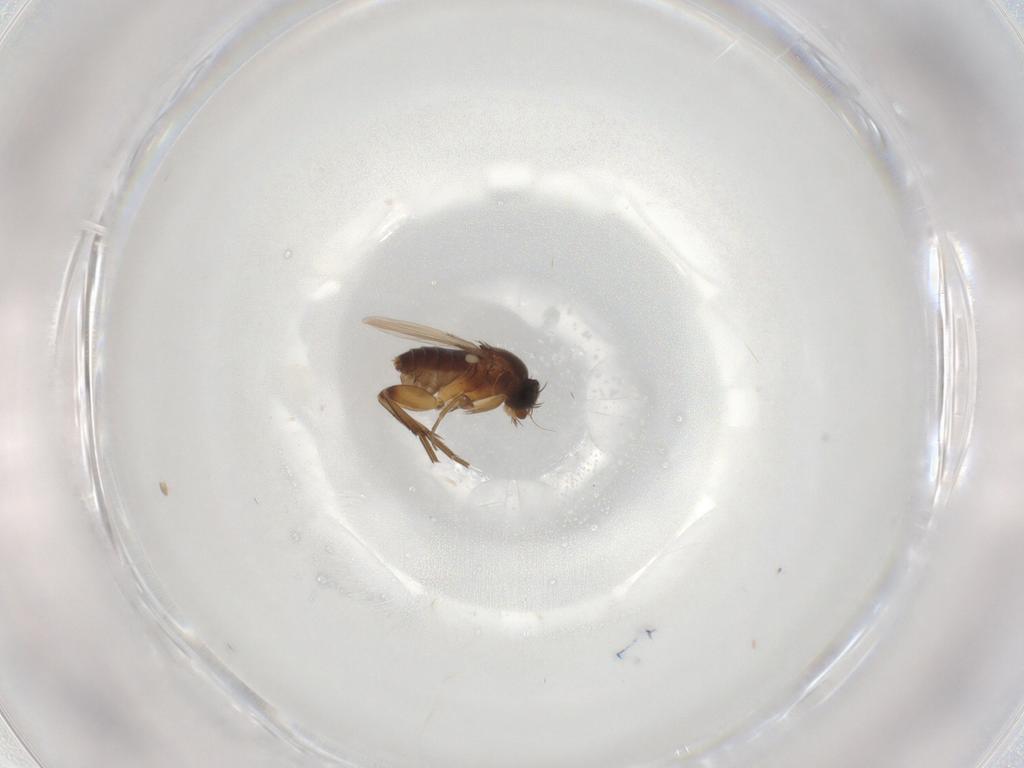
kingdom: Animalia
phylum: Arthropoda
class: Insecta
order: Diptera
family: Phoridae
